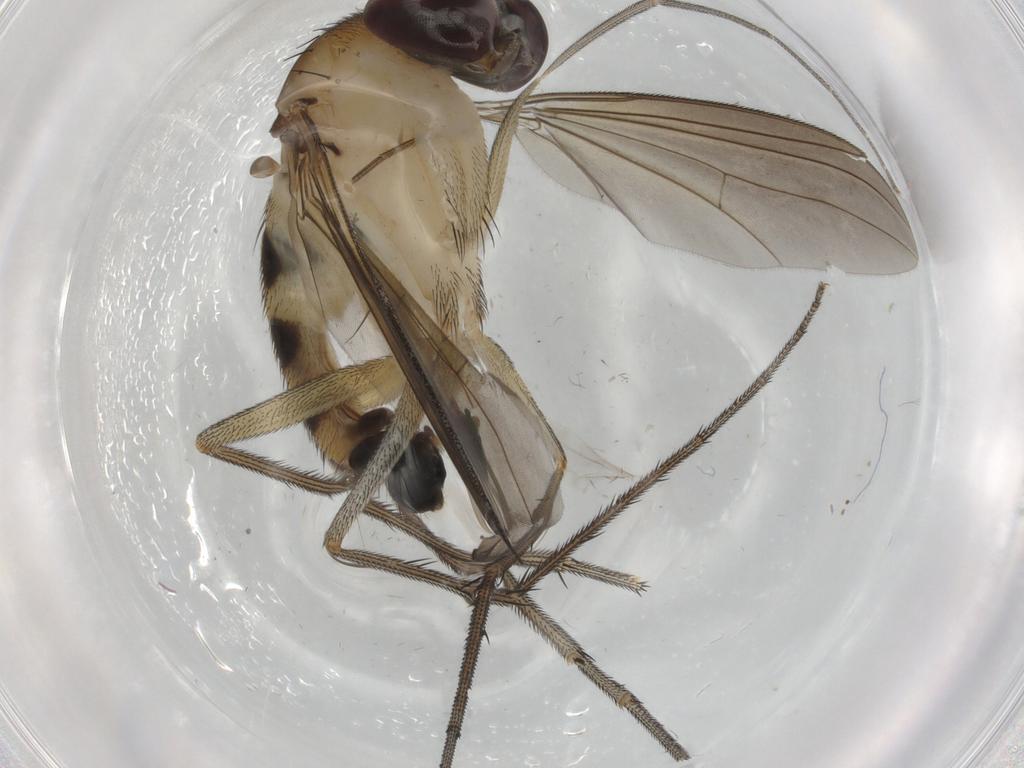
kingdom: Animalia
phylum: Arthropoda
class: Insecta
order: Diptera
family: Dolichopodidae
